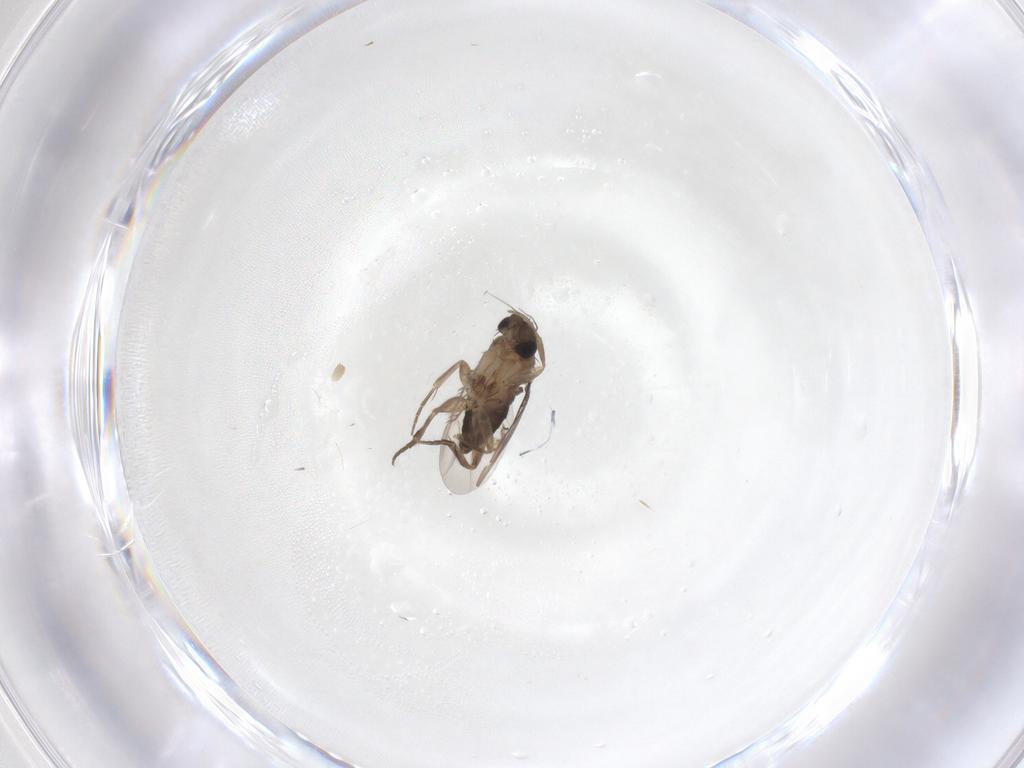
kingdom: Animalia
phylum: Arthropoda
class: Insecta
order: Diptera
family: Phoridae
